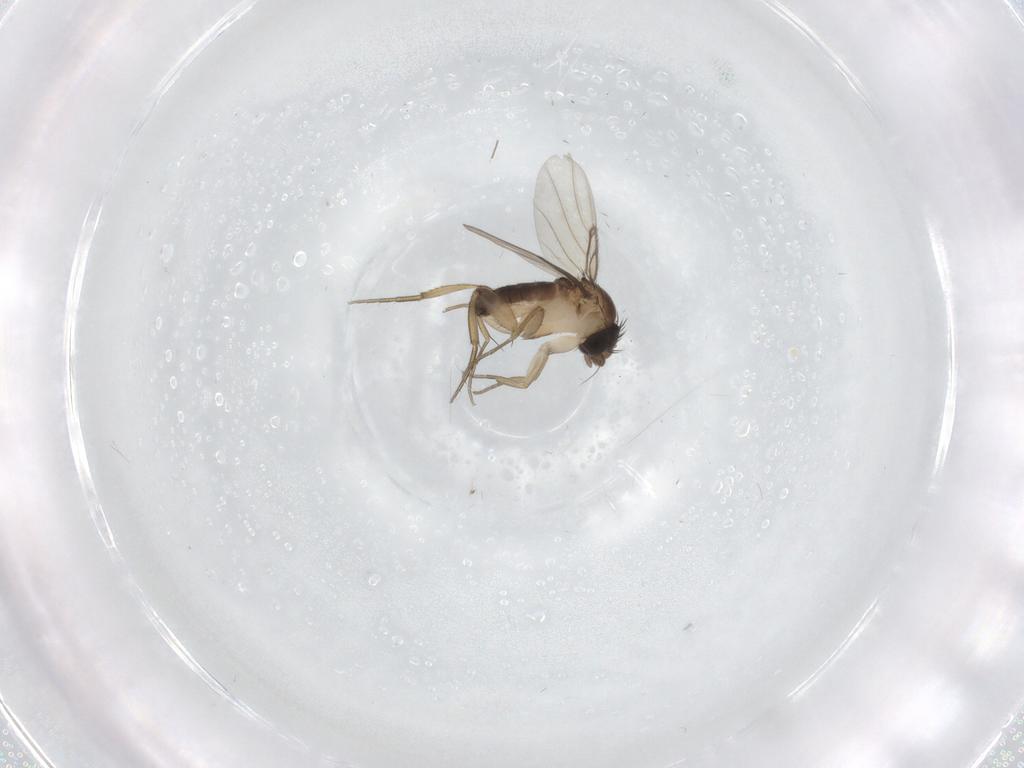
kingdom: Animalia
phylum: Arthropoda
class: Insecta
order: Diptera
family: Phoridae
